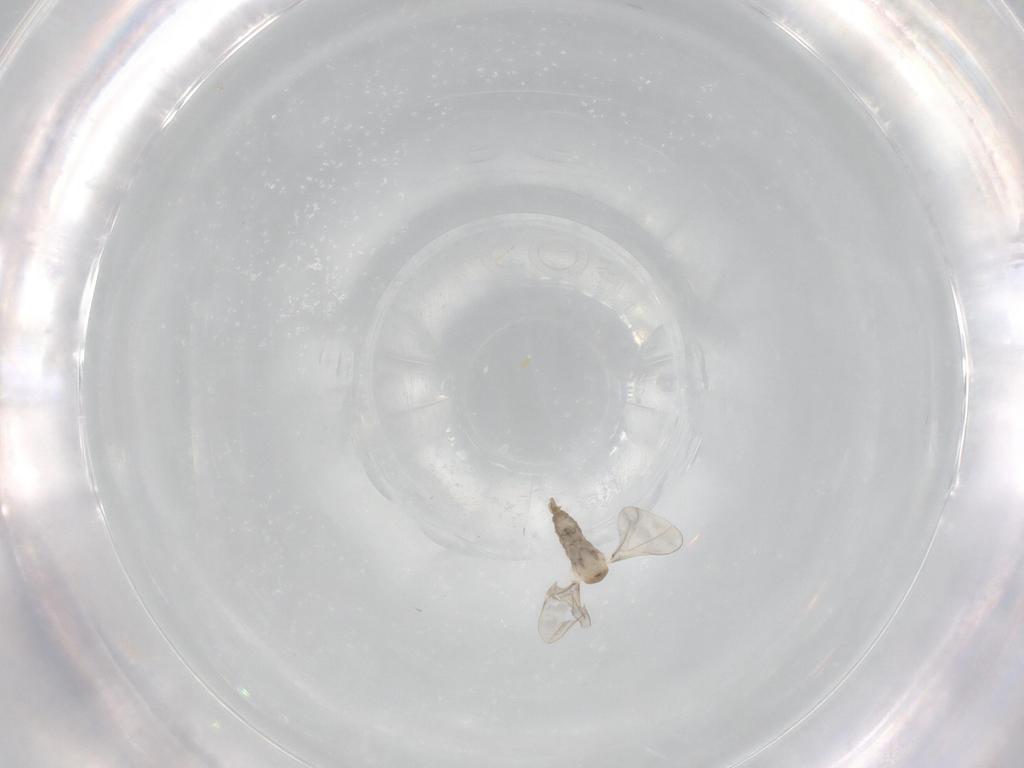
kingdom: Animalia
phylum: Arthropoda
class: Insecta
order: Diptera
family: Cecidomyiidae
